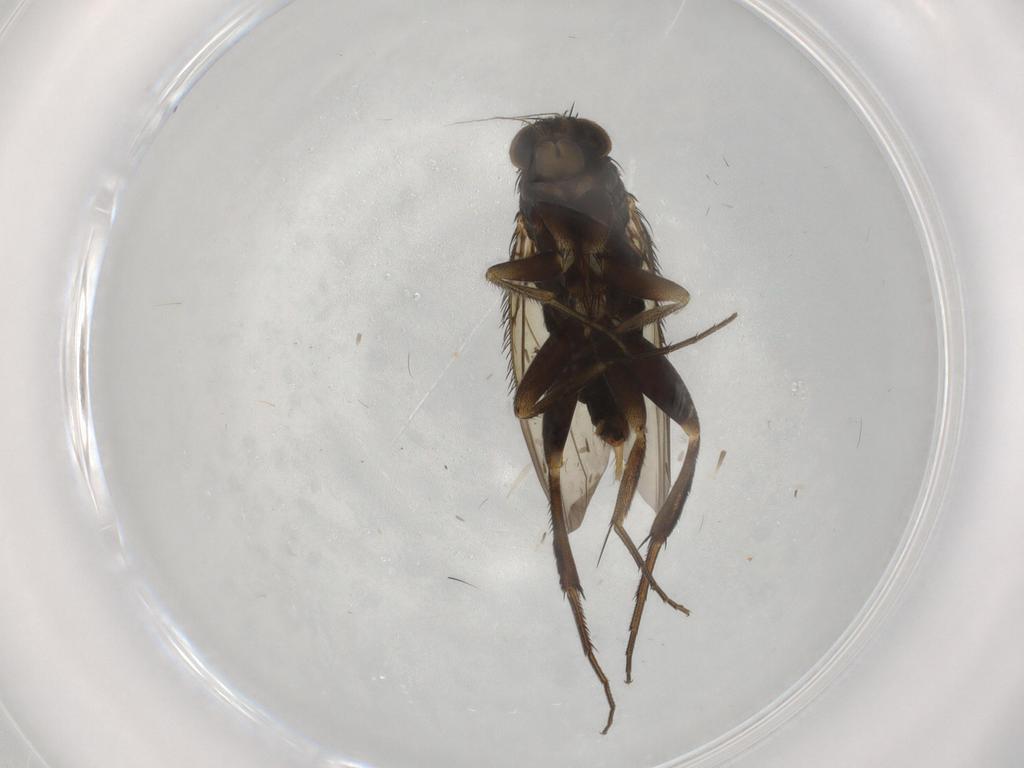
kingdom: Animalia
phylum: Arthropoda
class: Insecta
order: Diptera
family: Phoridae
